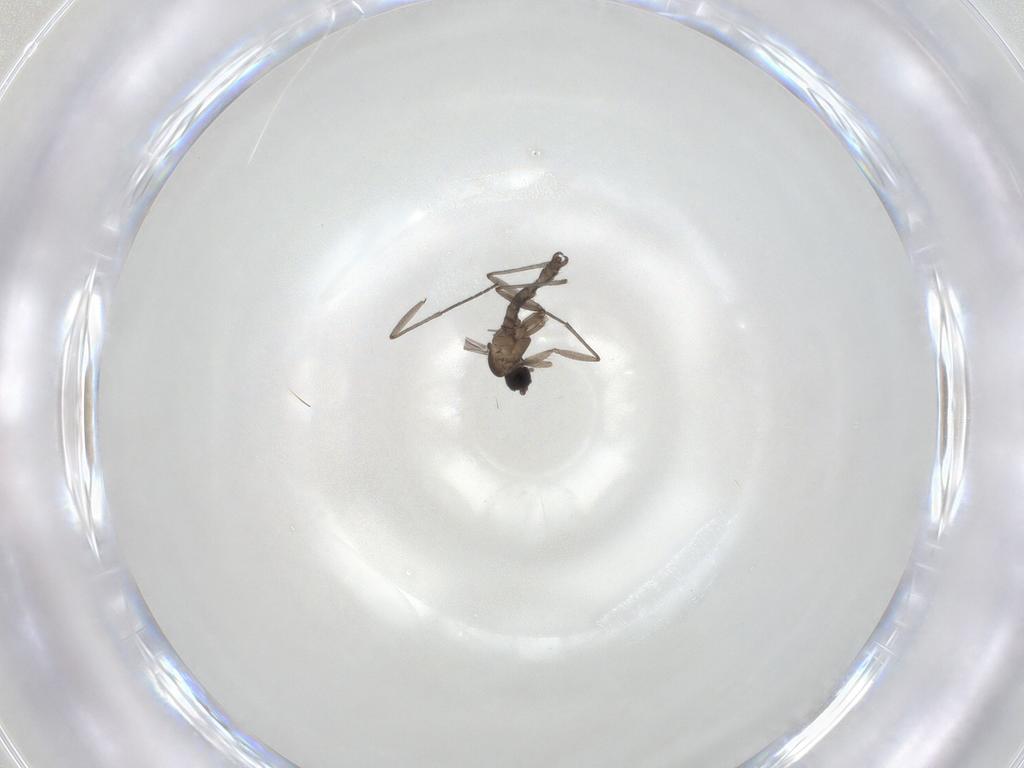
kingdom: Animalia
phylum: Arthropoda
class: Insecta
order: Diptera
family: Sciaridae
